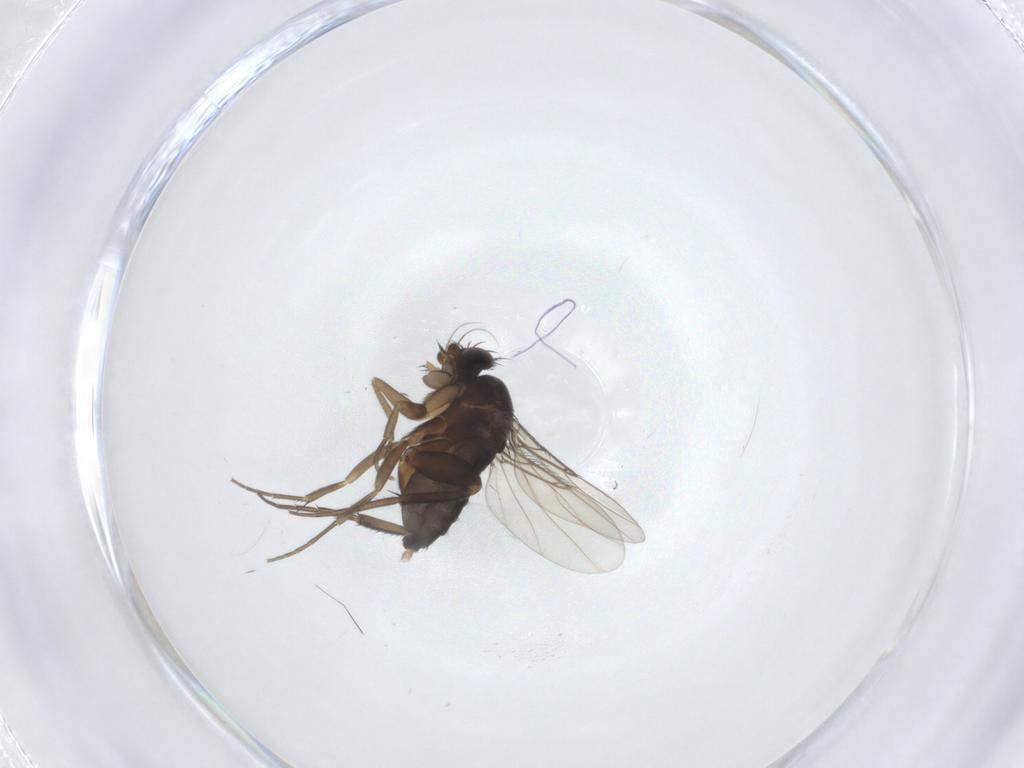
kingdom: Animalia
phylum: Arthropoda
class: Insecta
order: Diptera
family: Phoridae
